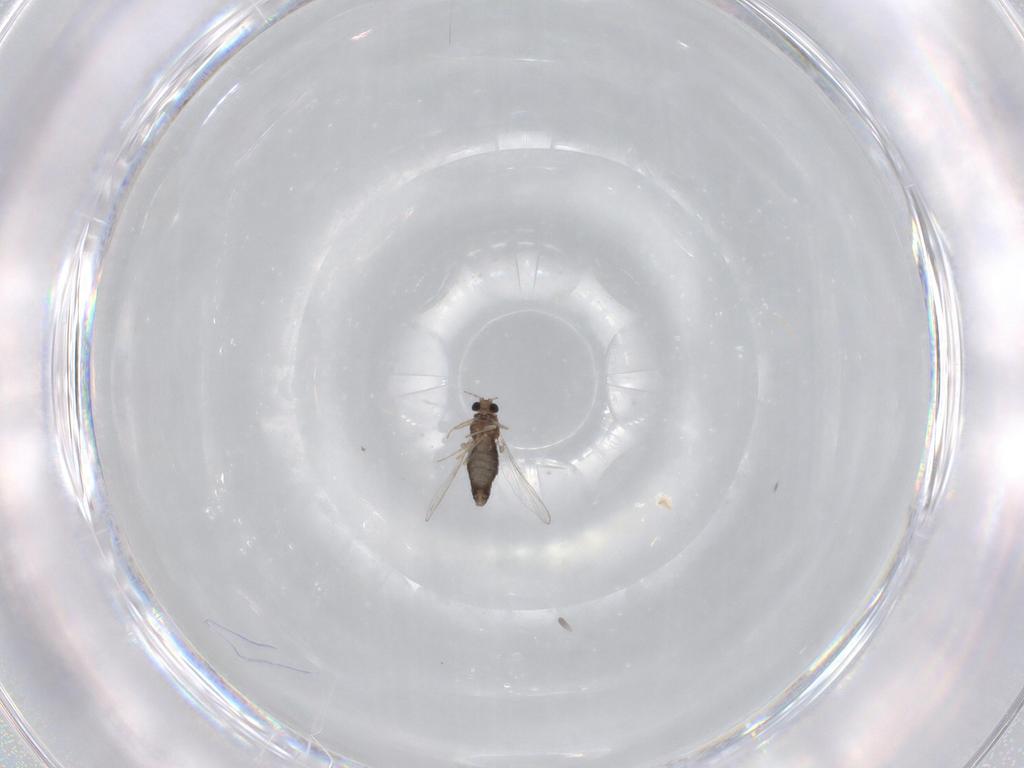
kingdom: Animalia
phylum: Arthropoda
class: Insecta
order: Diptera
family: Chironomidae
